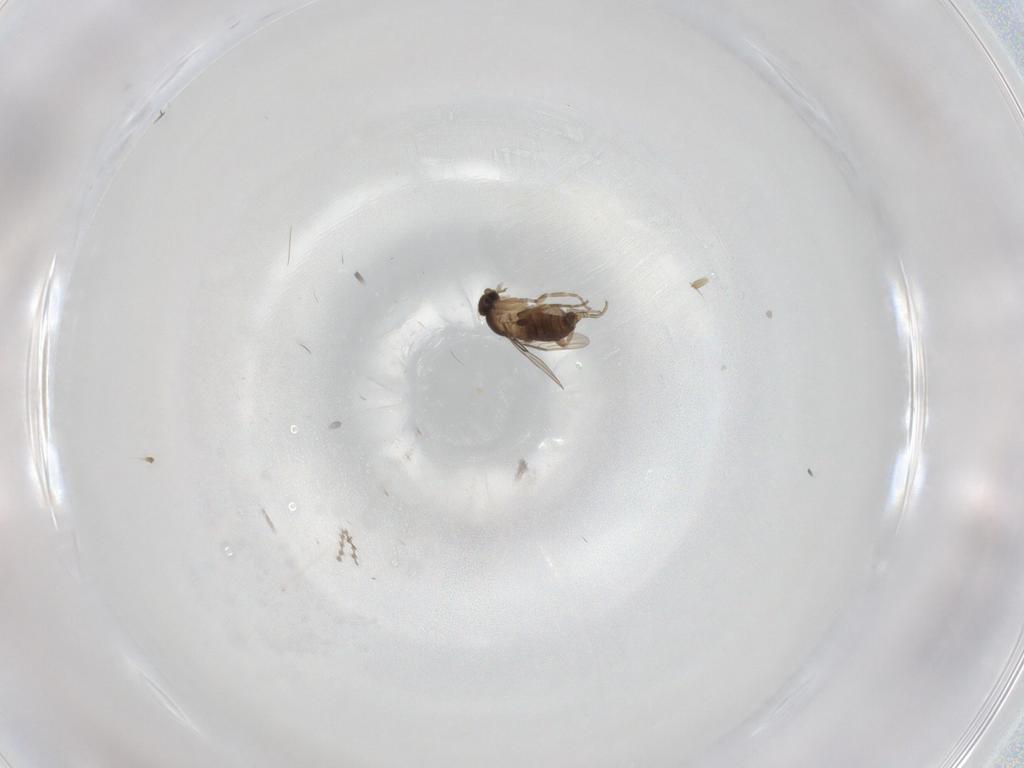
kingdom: Animalia
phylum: Arthropoda
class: Insecta
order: Diptera
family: Cecidomyiidae
